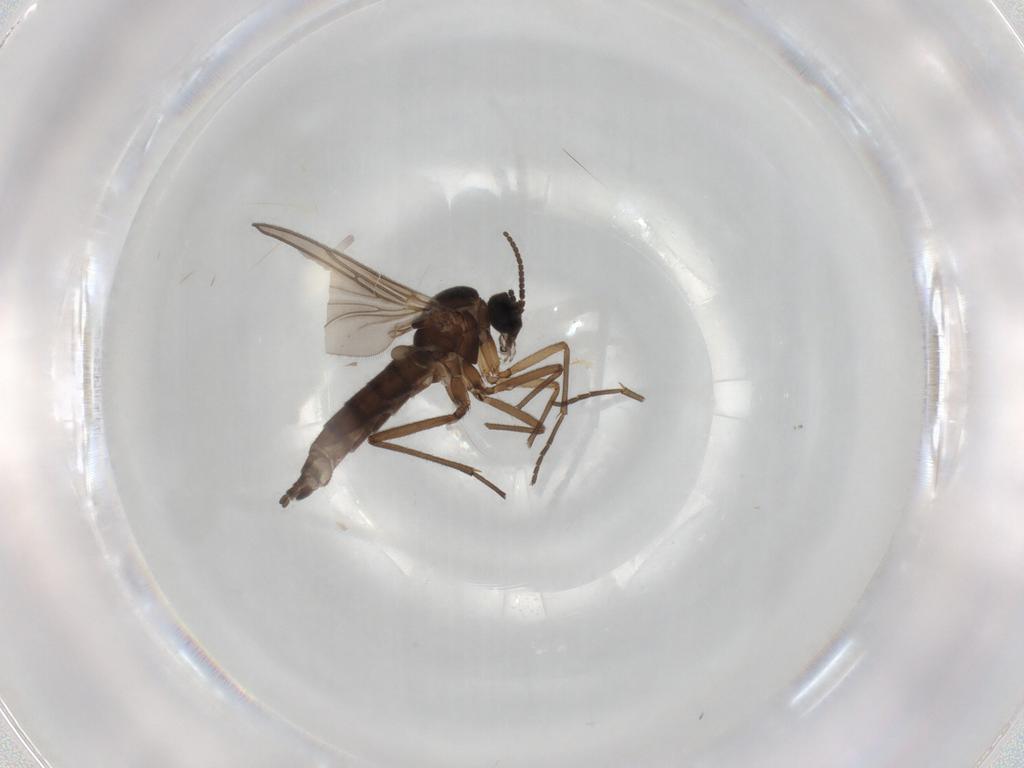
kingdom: Animalia
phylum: Arthropoda
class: Insecta
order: Diptera
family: Sciaridae
